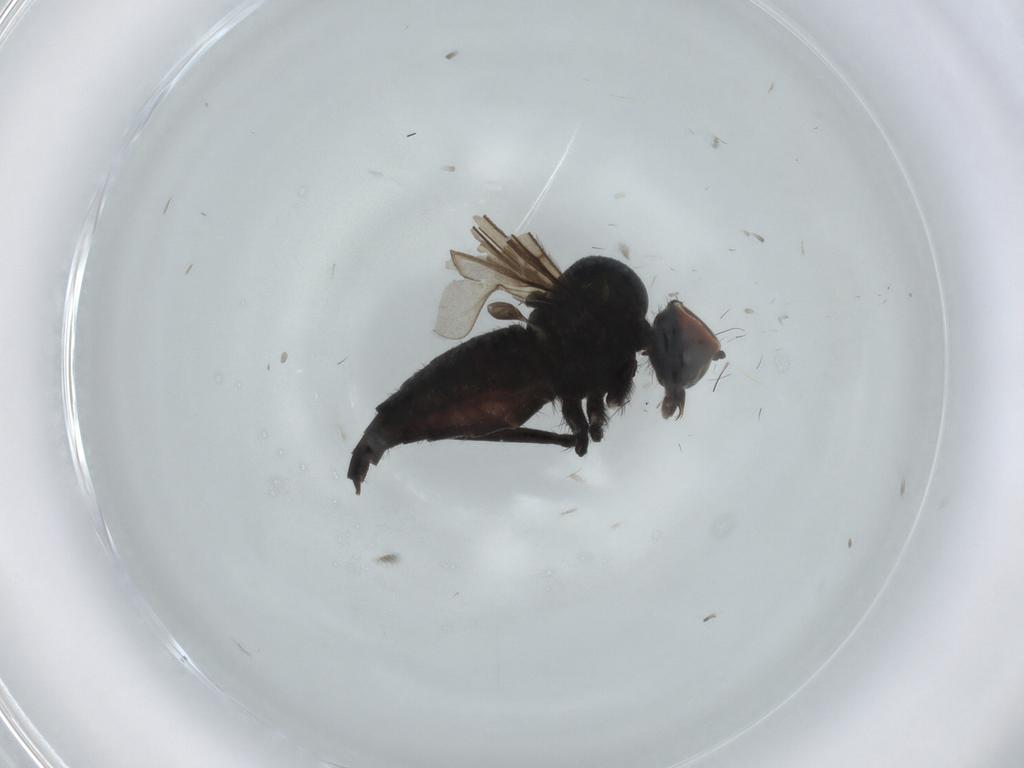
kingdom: Animalia
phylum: Arthropoda
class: Insecta
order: Diptera
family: Hybotidae
